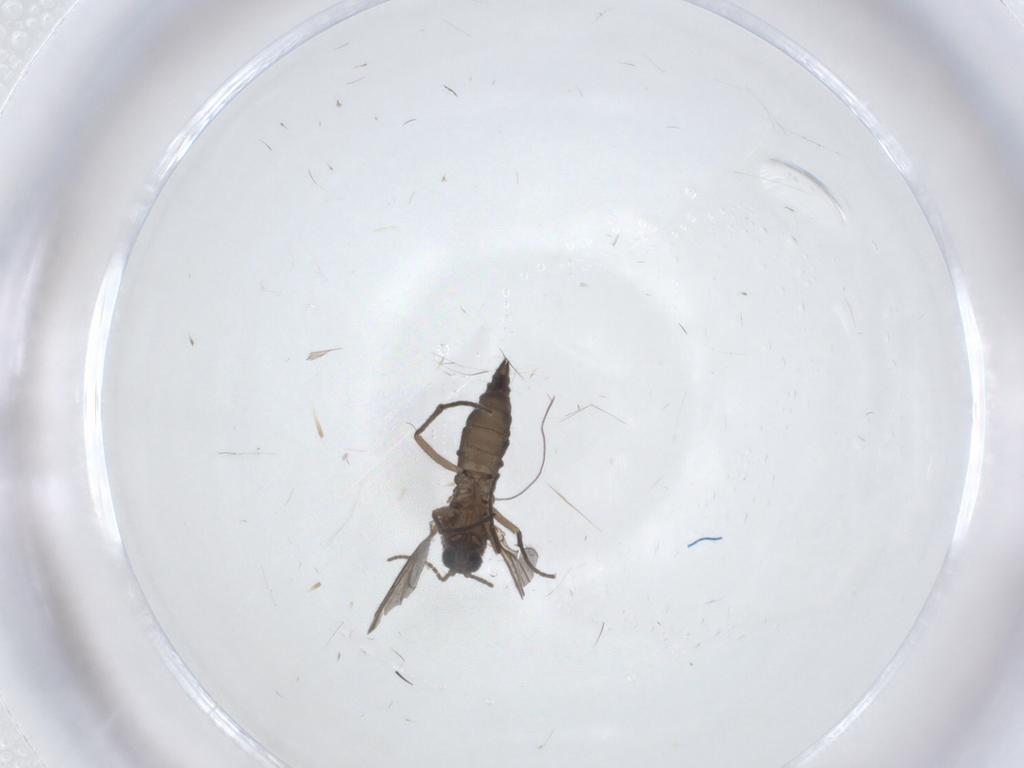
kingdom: Animalia
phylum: Arthropoda
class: Insecta
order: Diptera
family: Sciaridae
